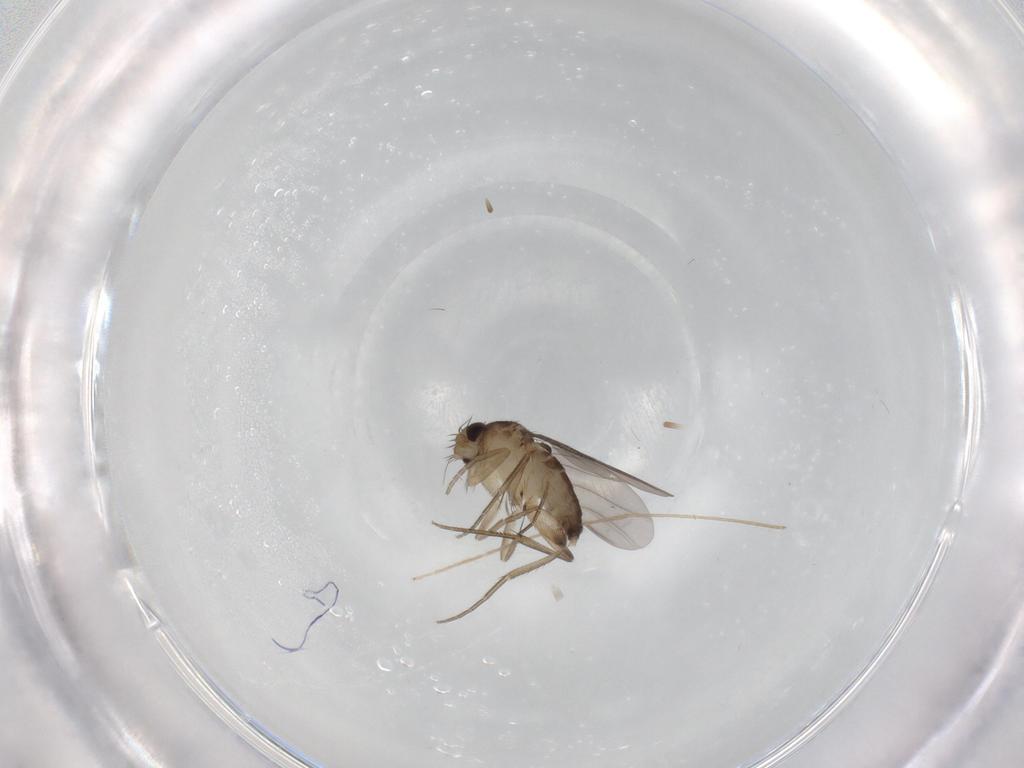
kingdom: Animalia
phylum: Arthropoda
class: Insecta
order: Diptera
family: Phoridae
